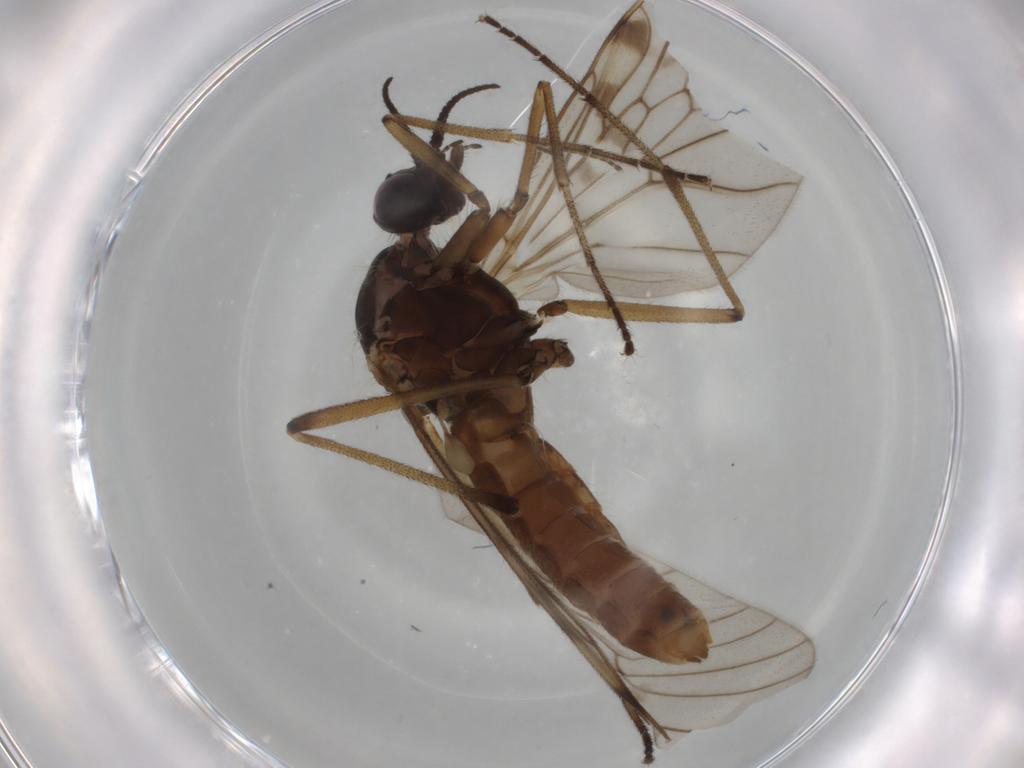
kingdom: Animalia
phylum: Arthropoda
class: Insecta
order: Diptera
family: Anisopodidae
